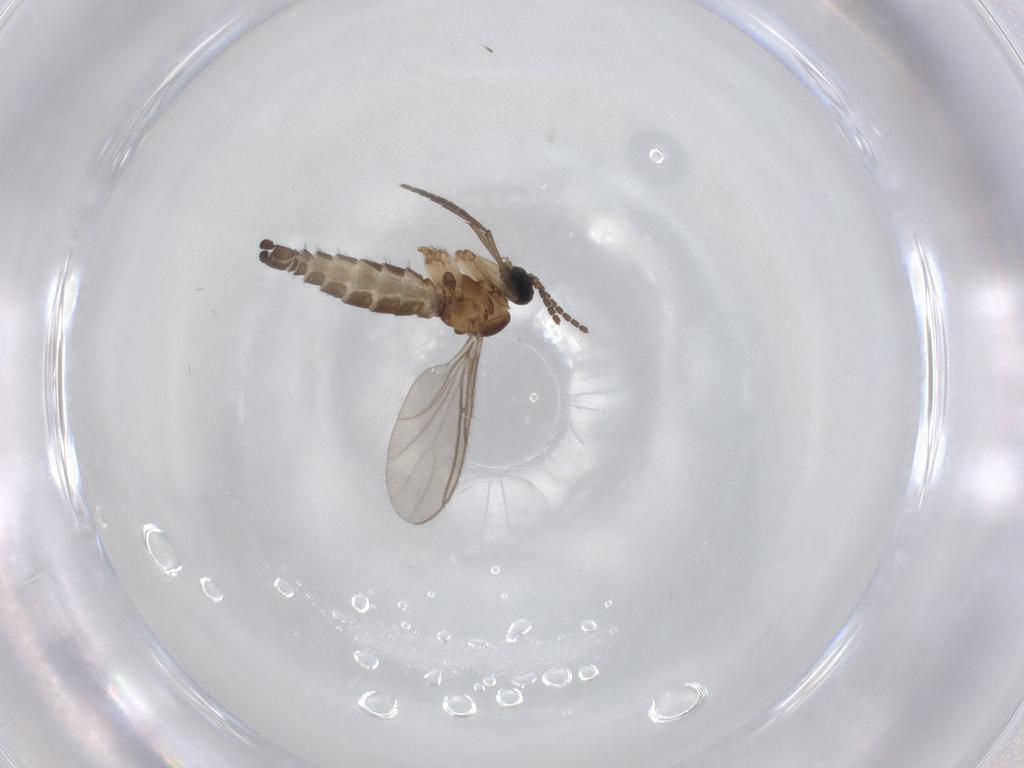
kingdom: Animalia
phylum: Arthropoda
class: Insecta
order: Diptera
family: Sciaridae
